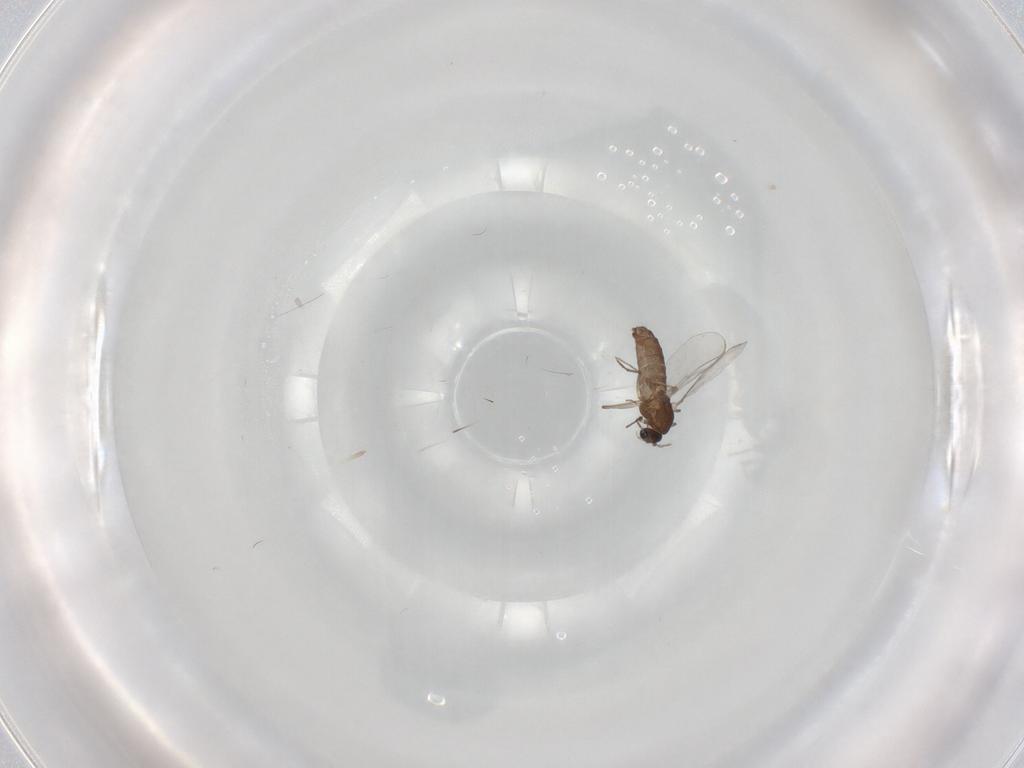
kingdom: Animalia
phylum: Arthropoda
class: Insecta
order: Diptera
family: Chironomidae
